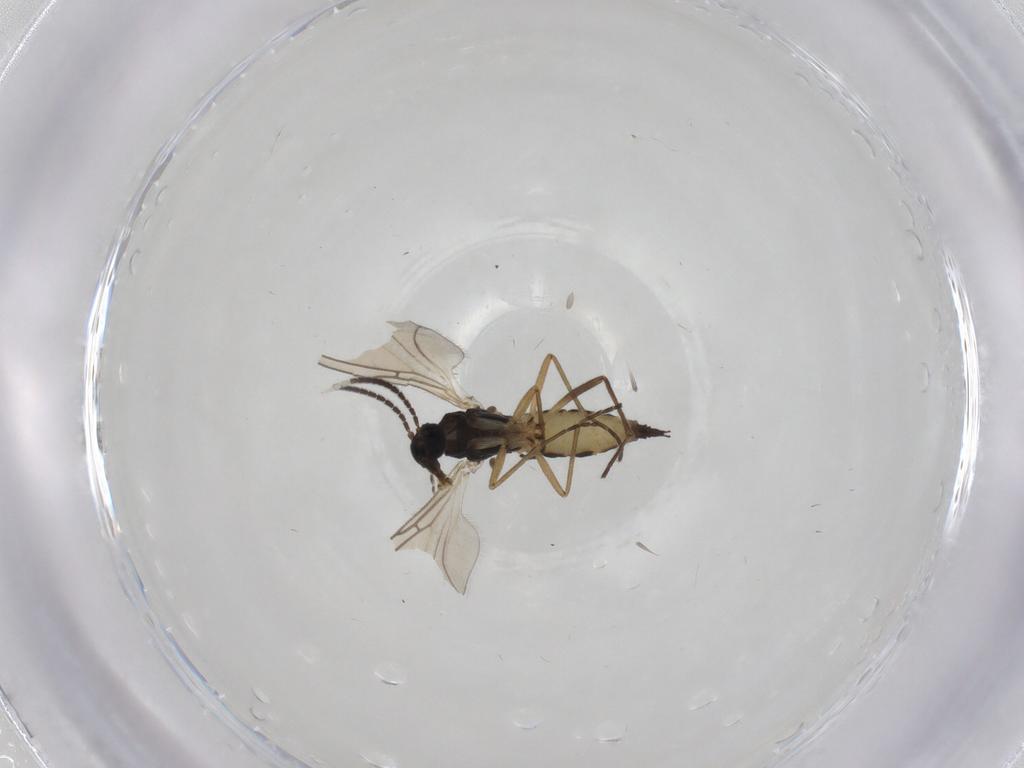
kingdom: Animalia
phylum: Arthropoda
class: Insecta
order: Diptera
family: Sciaridae
